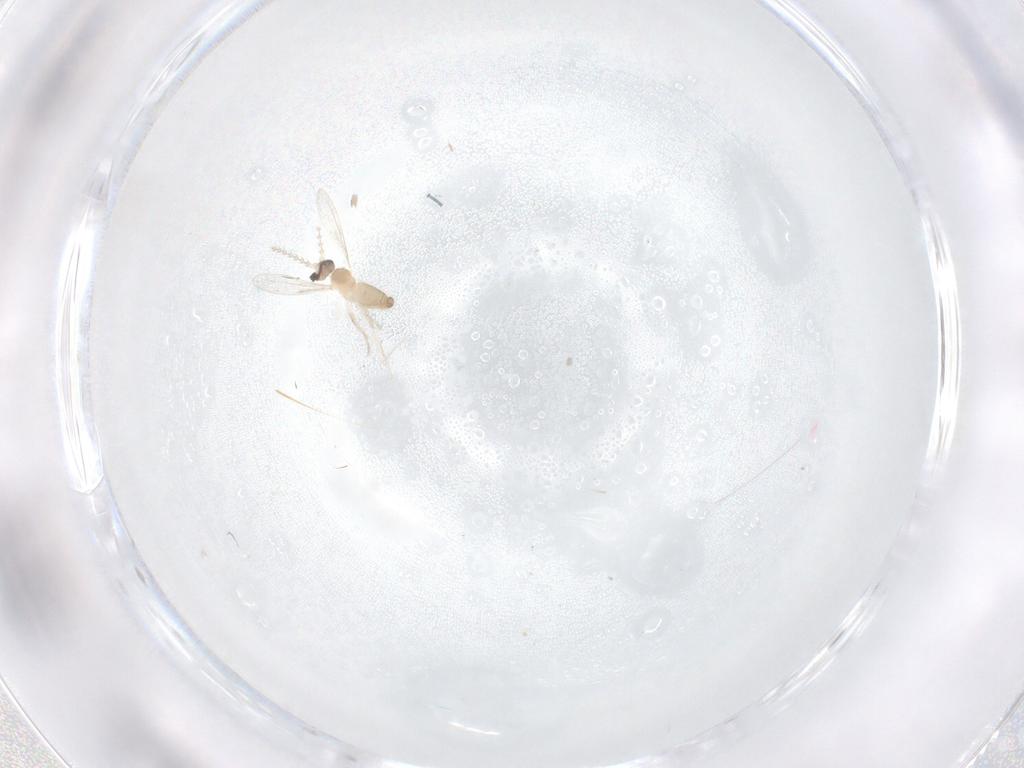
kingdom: Animalia
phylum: Arthropoda
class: Insecta
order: Diptera
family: Cecidomyiidae
